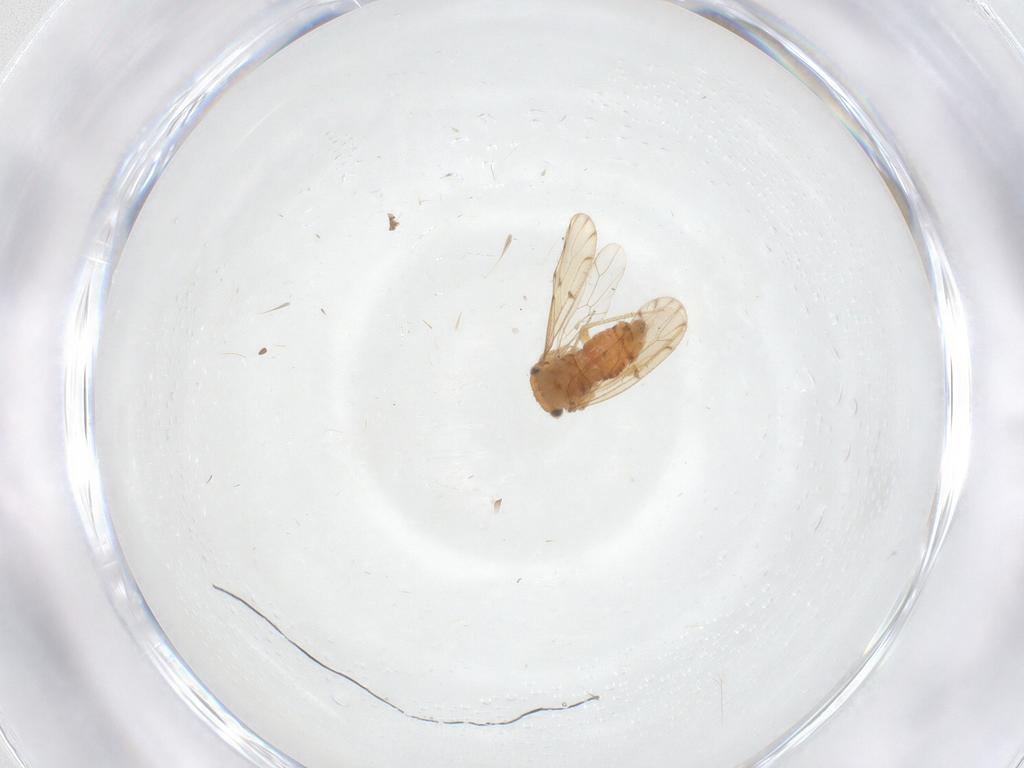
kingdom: Animalia
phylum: Arthropoda
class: Insecta
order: Psocodea
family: Ectopsocidae
